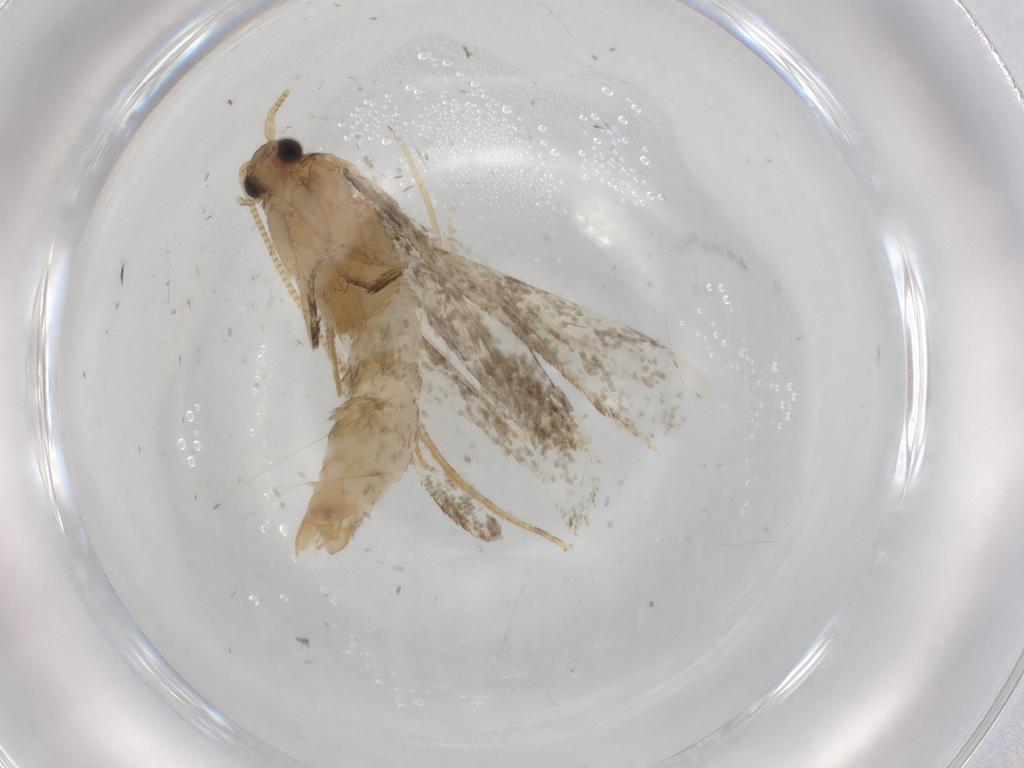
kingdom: Animalia
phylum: Arthropoda
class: Insecta
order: Lepidoptera
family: Tineidae
